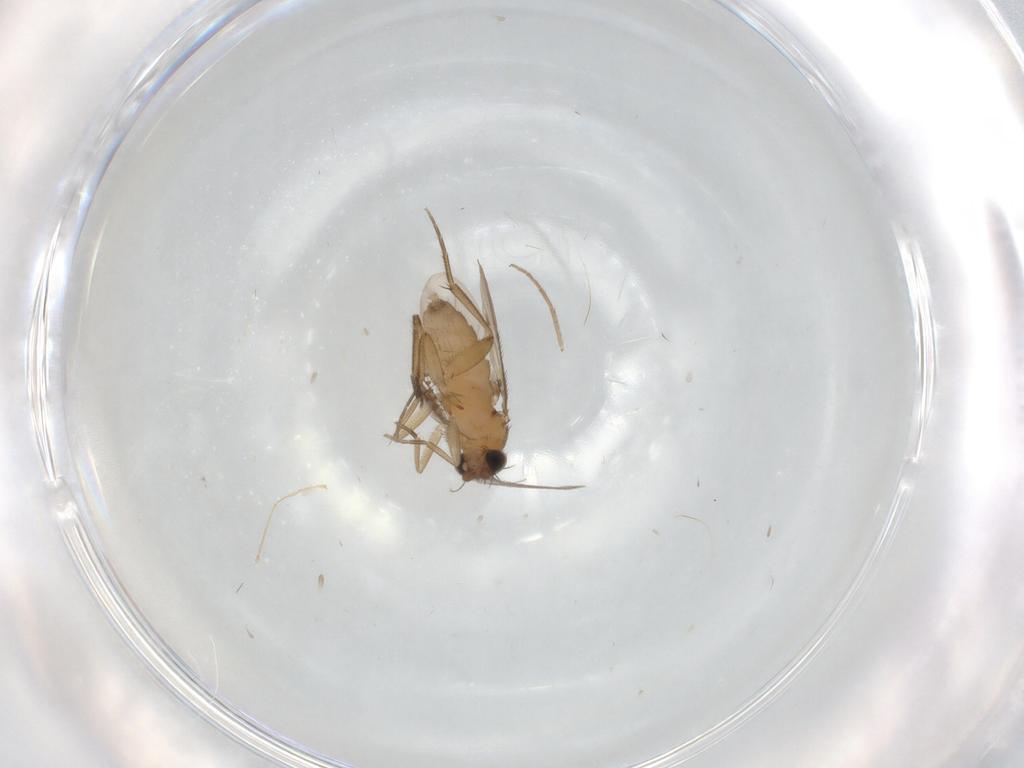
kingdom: Animalia
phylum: Arthropoda
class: Insecta
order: Diptera
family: Phoridae
